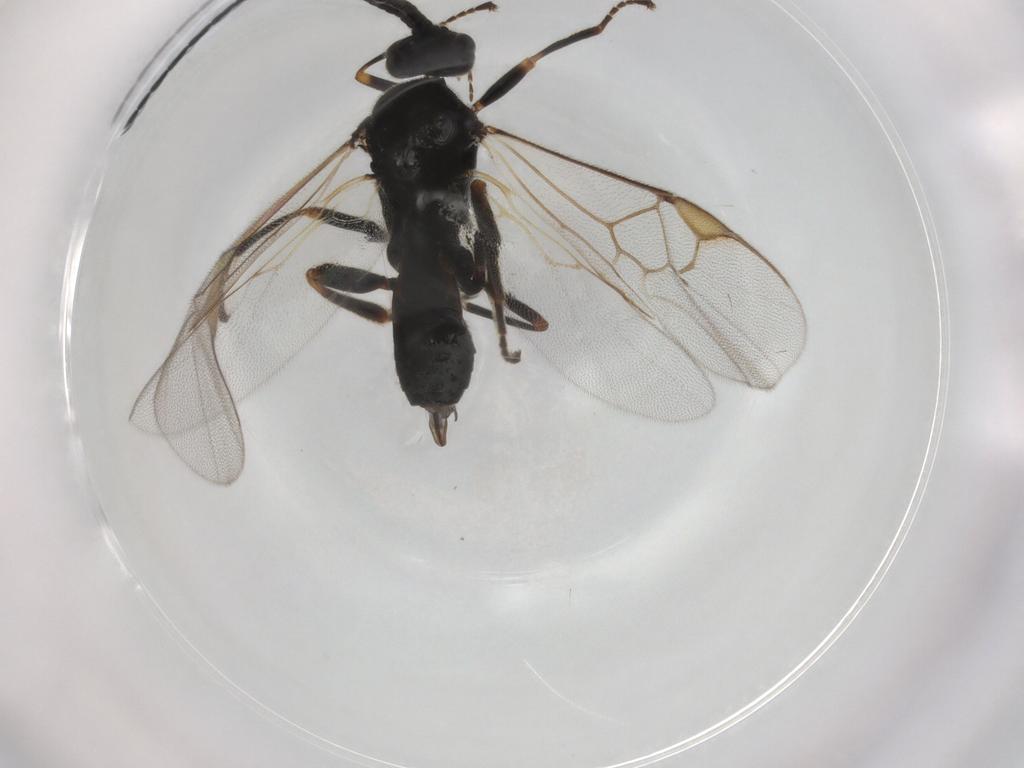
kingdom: Animalia
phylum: Arthropoda
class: Insecta
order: Hymenoptera
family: Braconidae
